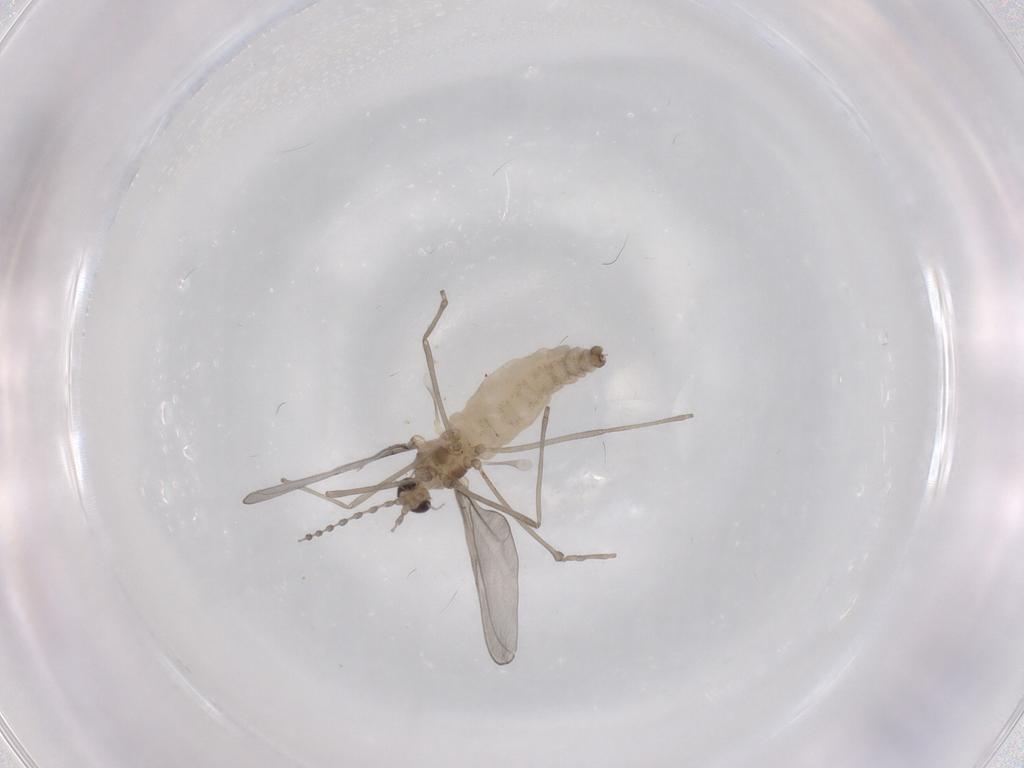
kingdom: Animalia
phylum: Arthropoda
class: Insecta
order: Diptera
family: Cecidomyiidae
